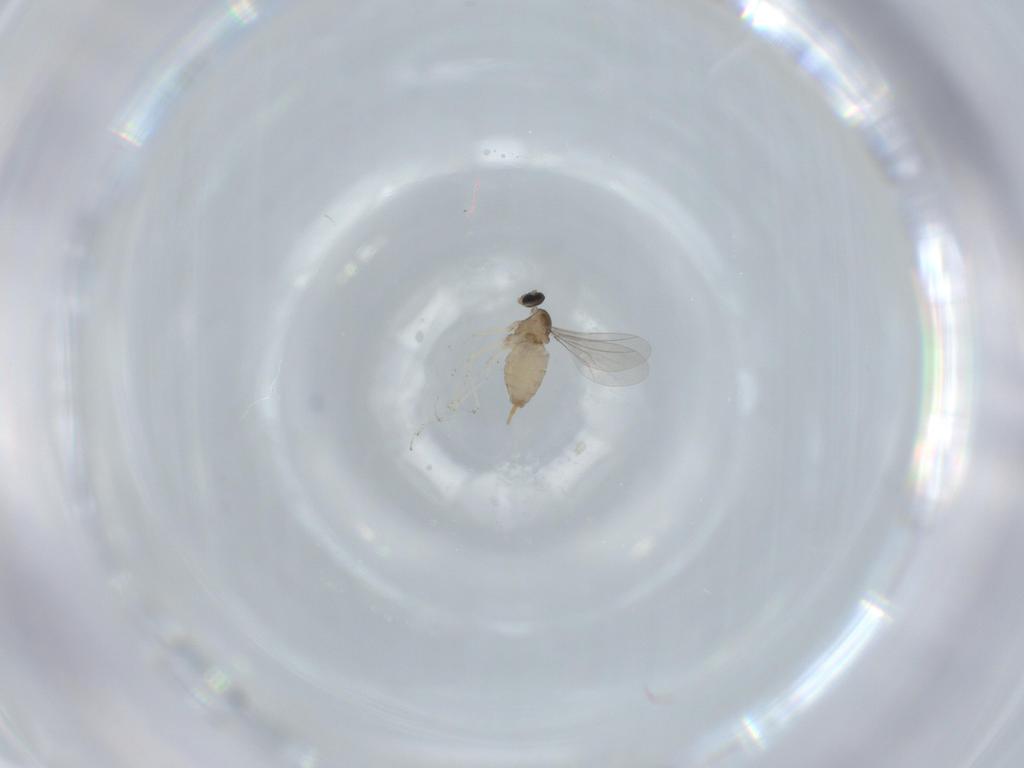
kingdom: Animalia
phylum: Arthropoda
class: Insecta
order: Diptera
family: Cecidomyiidae
